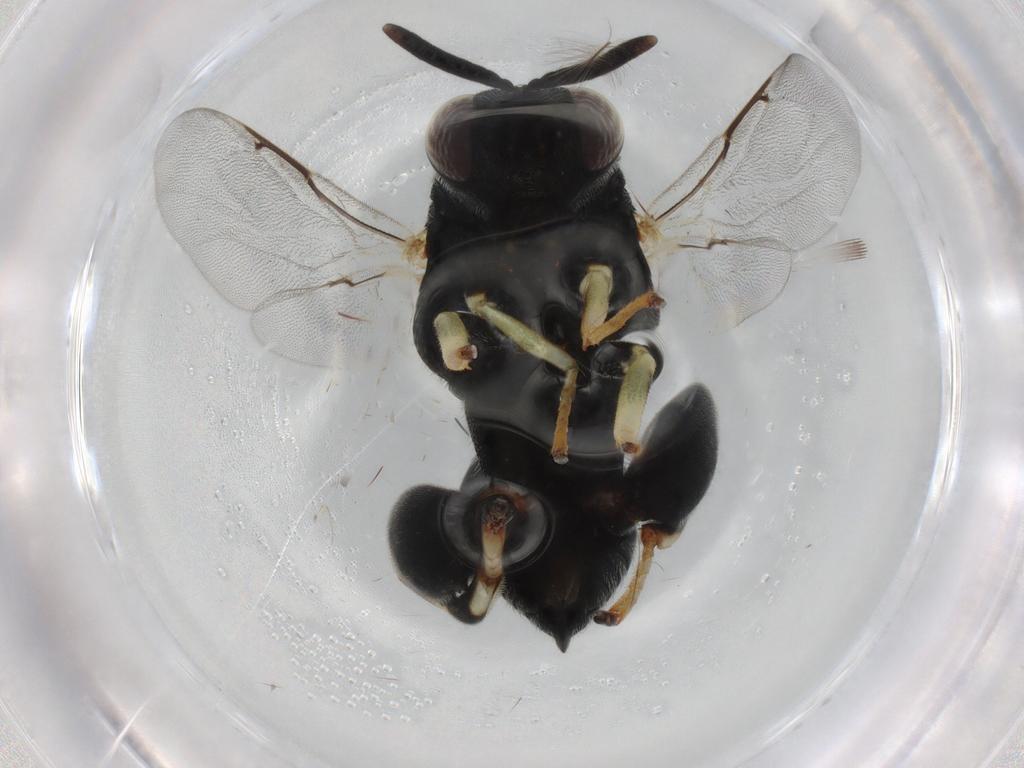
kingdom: Animalia
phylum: Arthropoda
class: Insecta
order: Hymenoptera
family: Chalcididae
